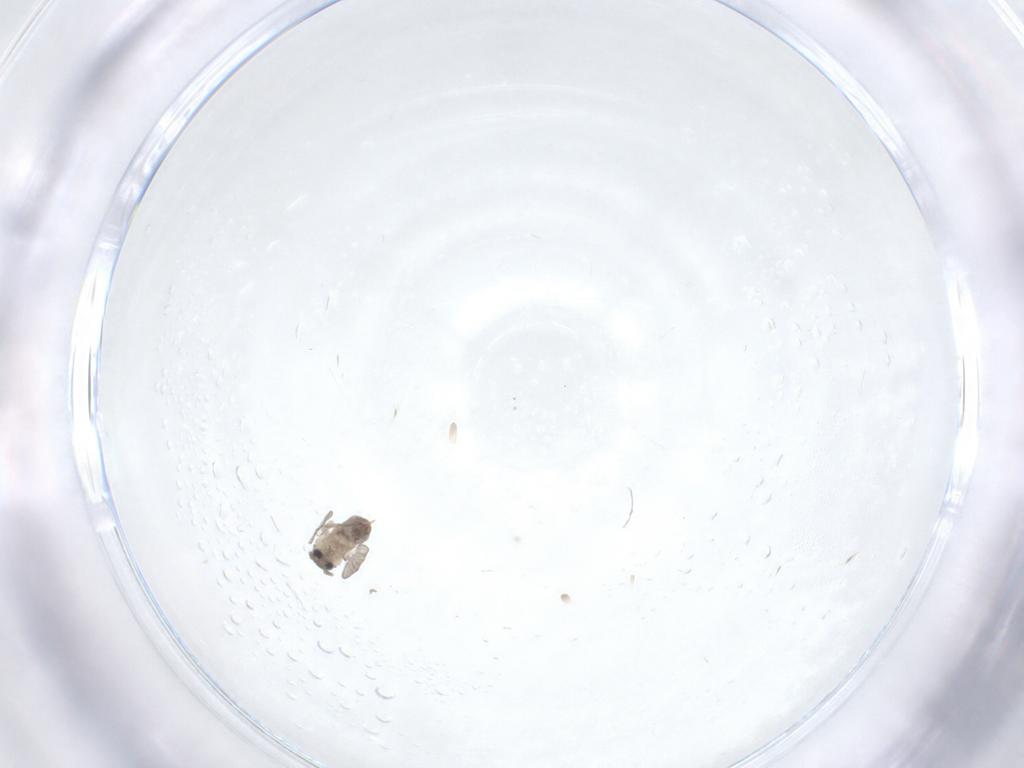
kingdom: Animalia
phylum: Arthropoda
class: Insecta
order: Diptera
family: Psychodidae
